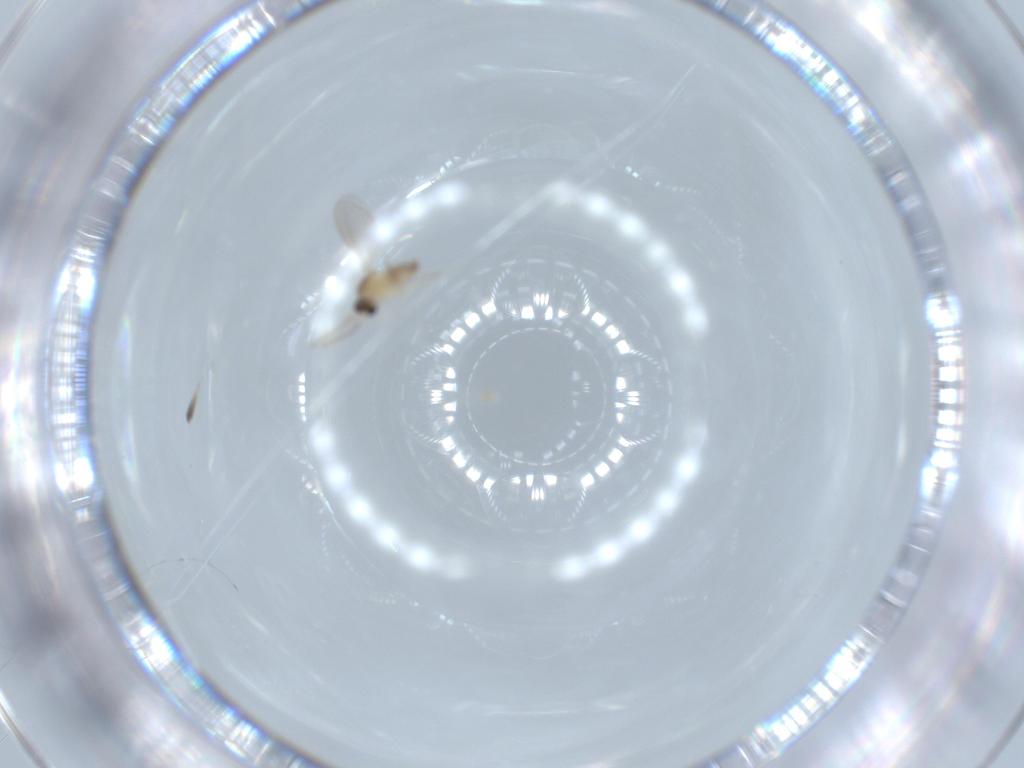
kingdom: Animalia
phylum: Arthropoda
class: Insecta
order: Diptera
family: Cecidomyiidae
